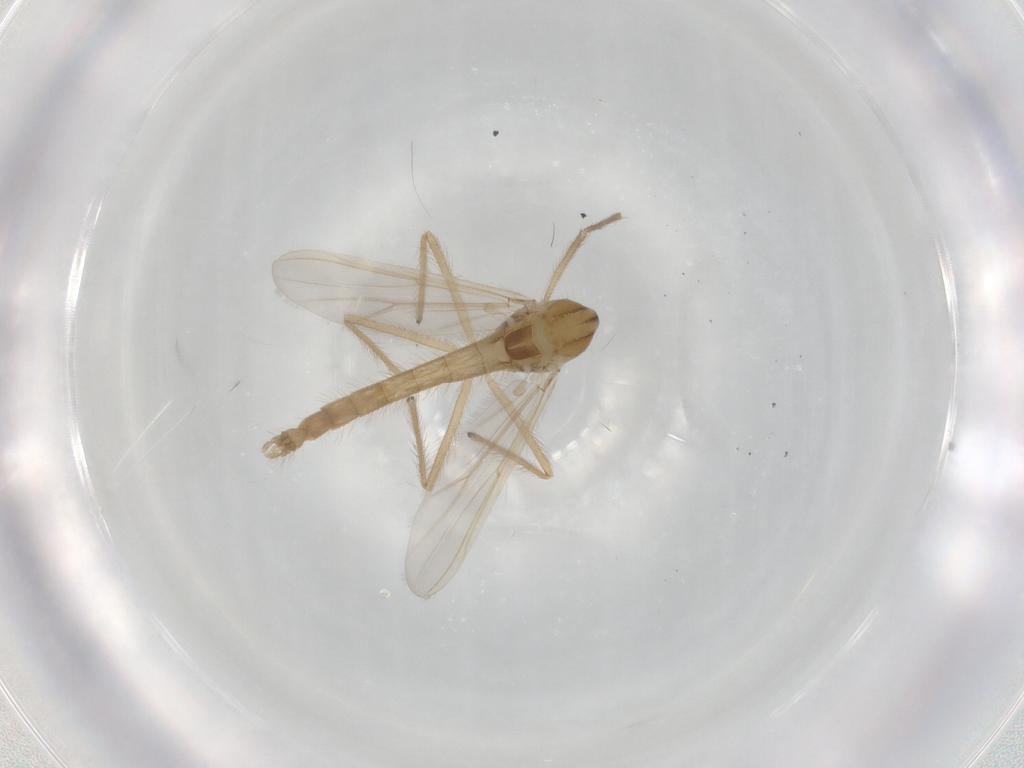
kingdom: Animalia
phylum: Arthropoda
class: Insecta
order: Diptera
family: Chironomidae
